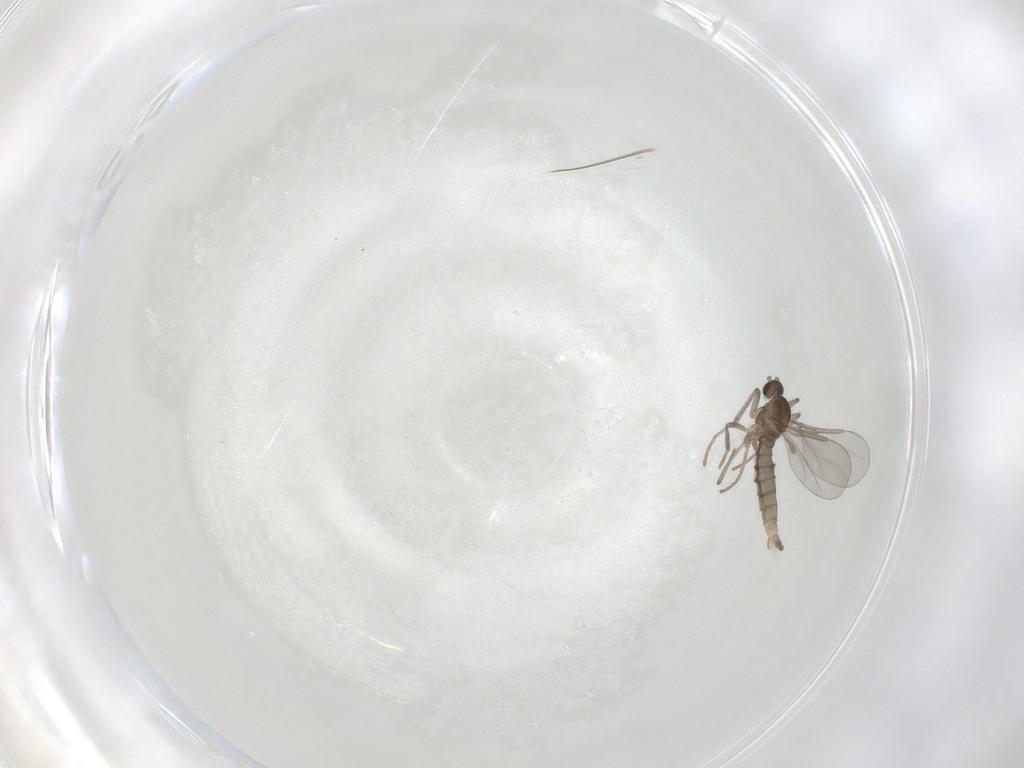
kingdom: Animalia
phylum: Arthropoda
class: Insecta
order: Diptera
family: Cecidomyiidae
